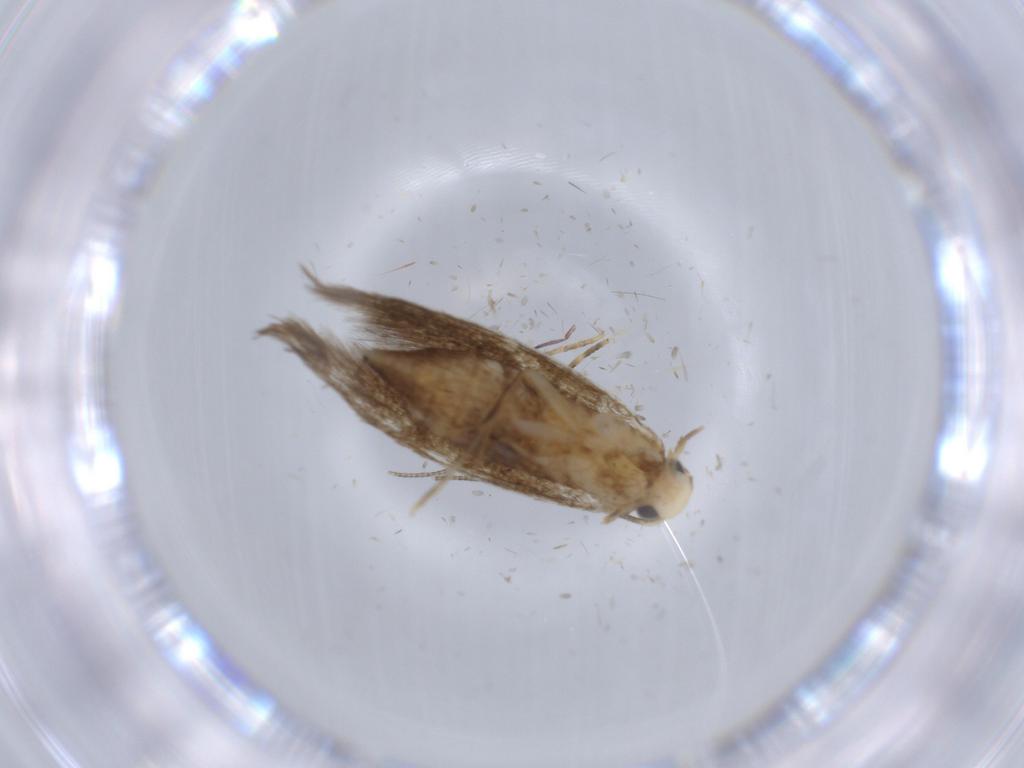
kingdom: Animalia
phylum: Arthropoda
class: Insecta
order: Lepidoptera
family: Tineidae
